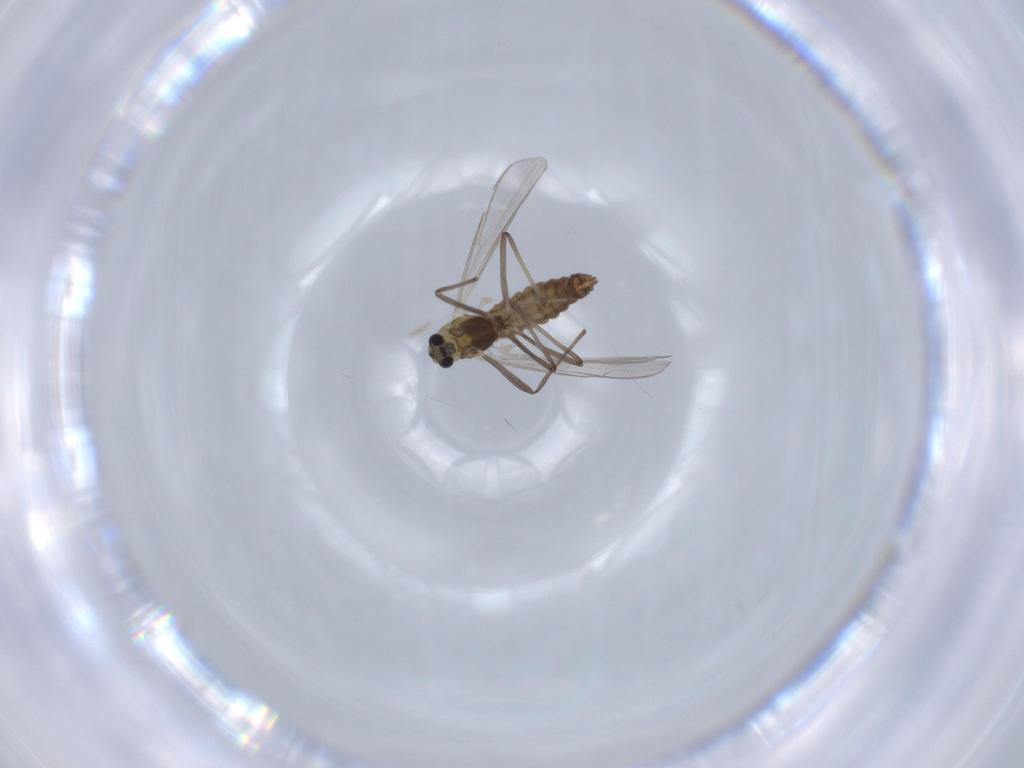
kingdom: Animalia
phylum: Arthropoda
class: Insecta
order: Diptera
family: Chironomidae
